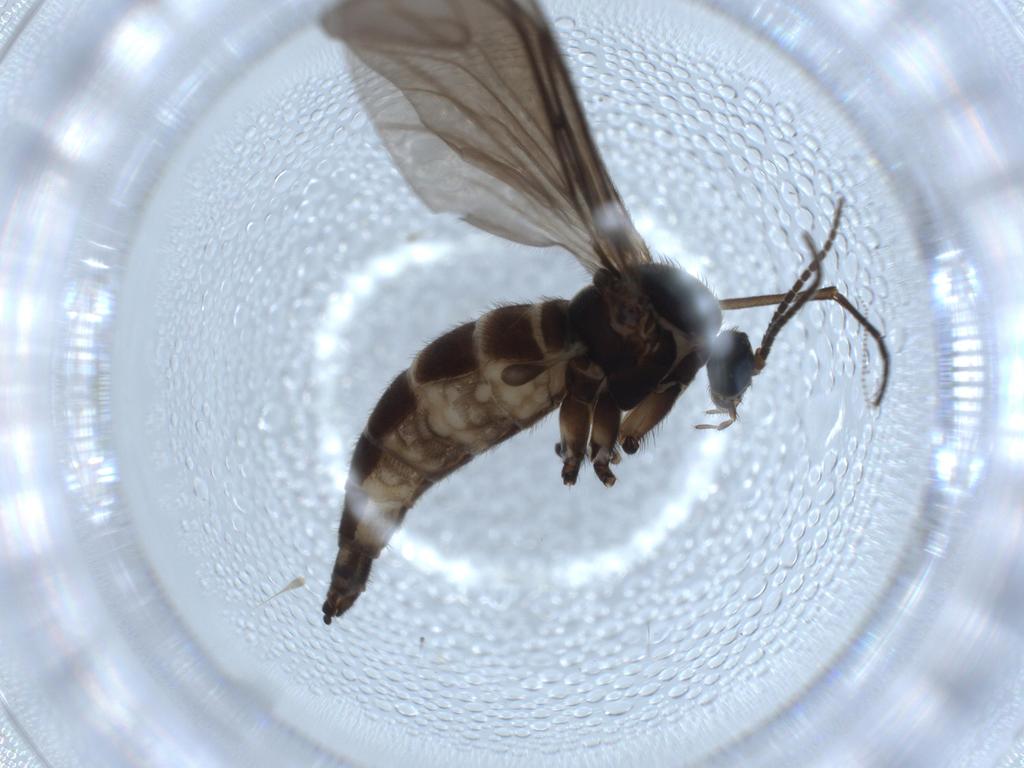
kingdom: Animalia
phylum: Arthropoda
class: Insecta
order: Diptera
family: Sciaridae
